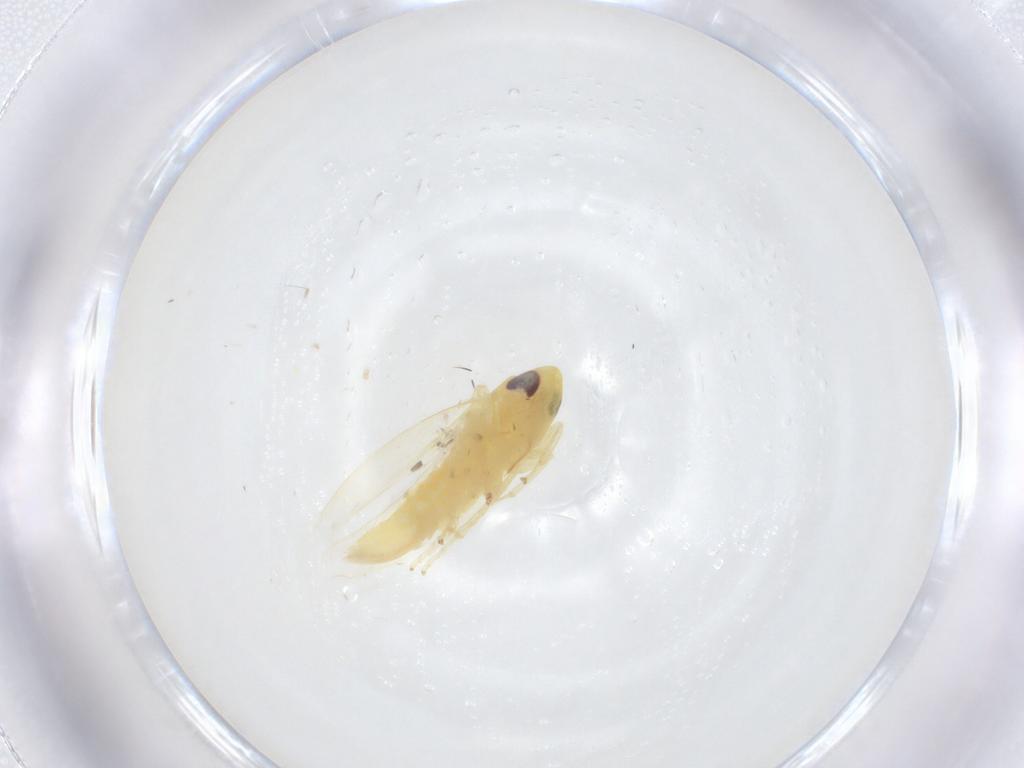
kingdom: Animalia
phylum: Arthropoda
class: Insecta
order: Hemiptera
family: Cicadellidae
